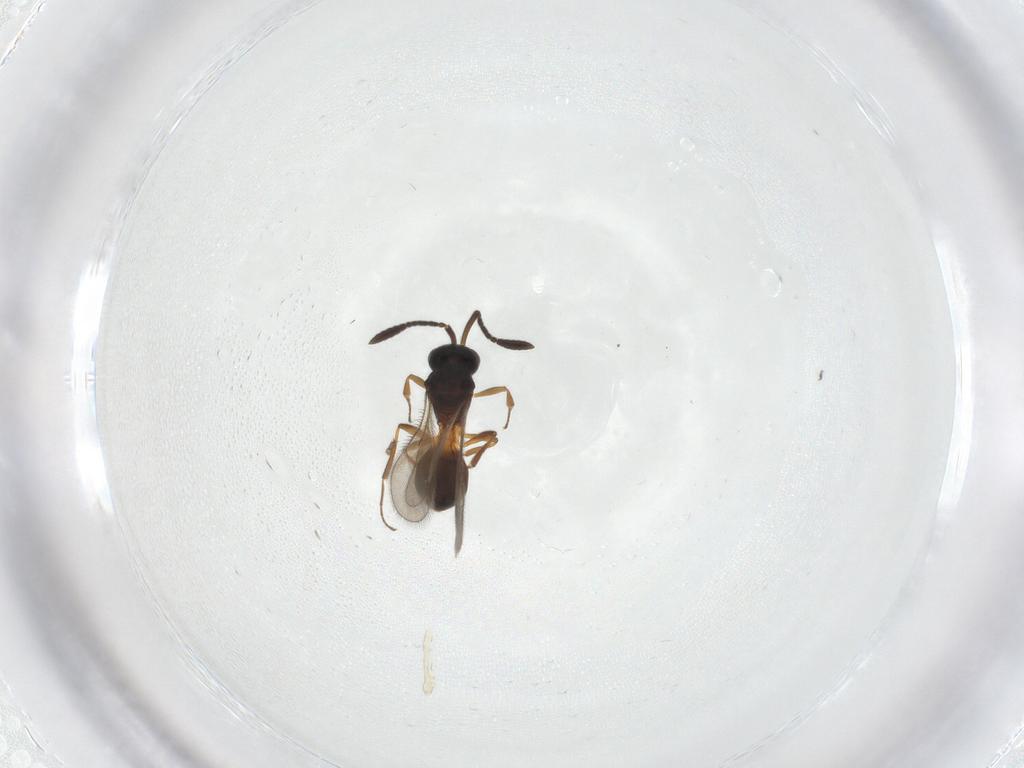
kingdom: Animalia
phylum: Arthropoda
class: Insecta
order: Hymenoptera
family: Scelionidae
